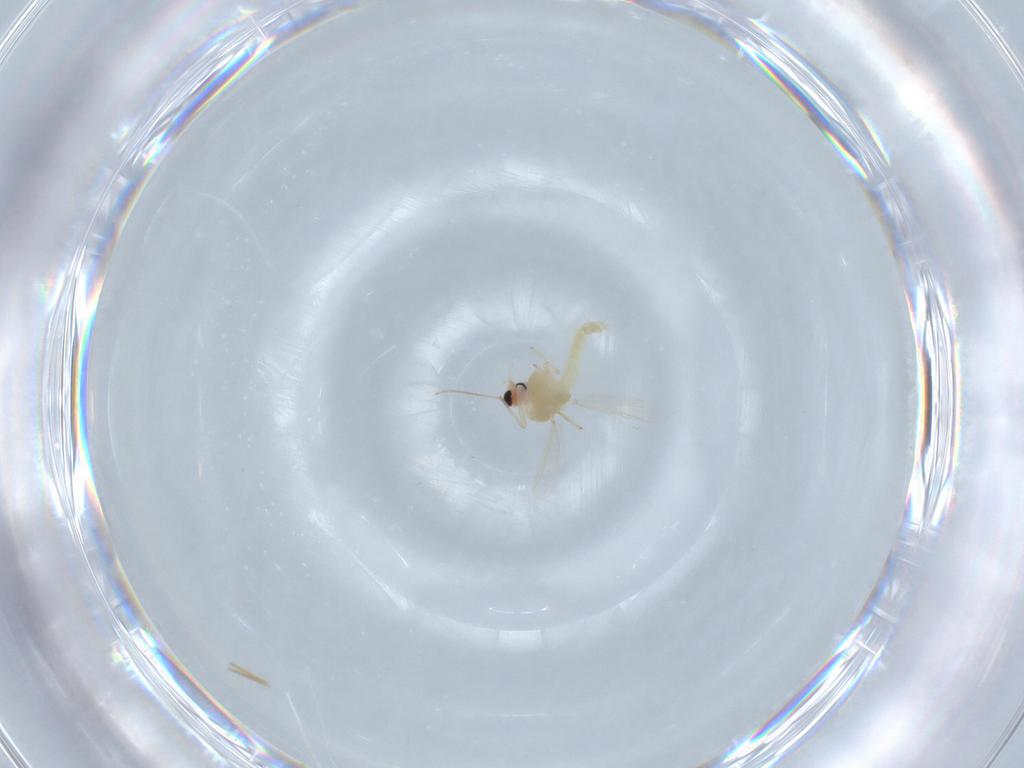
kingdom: Animalia
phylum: Arthropoda
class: Insecta
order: Diptera
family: Chironomidae
